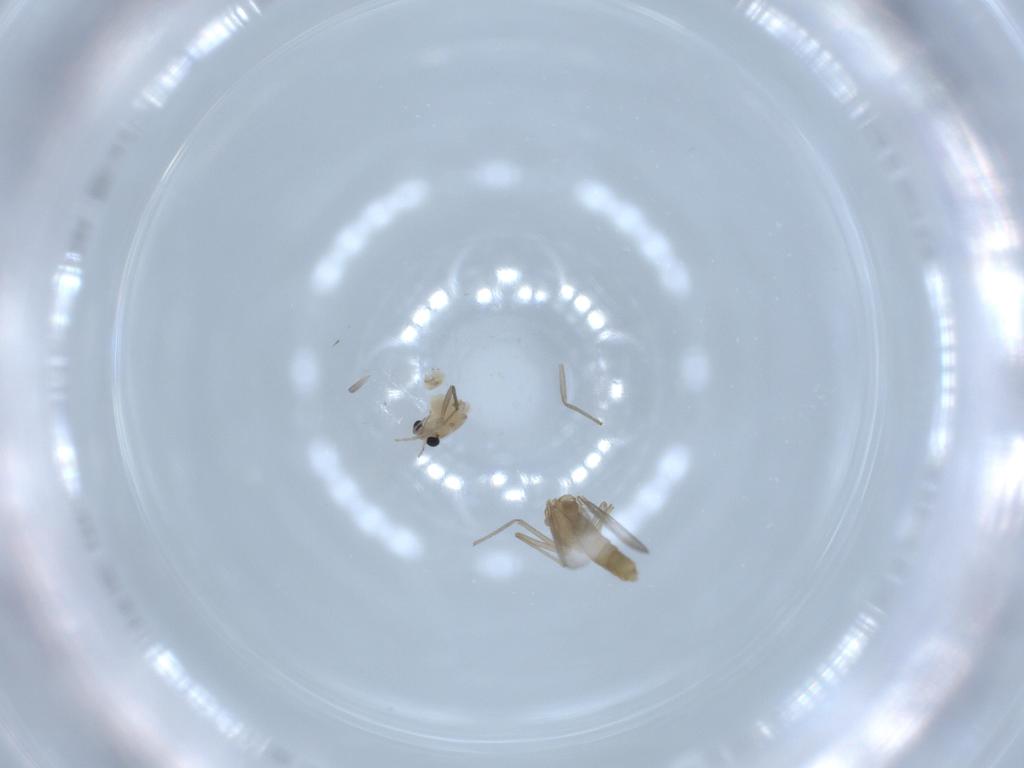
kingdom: Animalia
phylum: Arthropoda
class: Insecta
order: Diptera
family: Chironomidae
